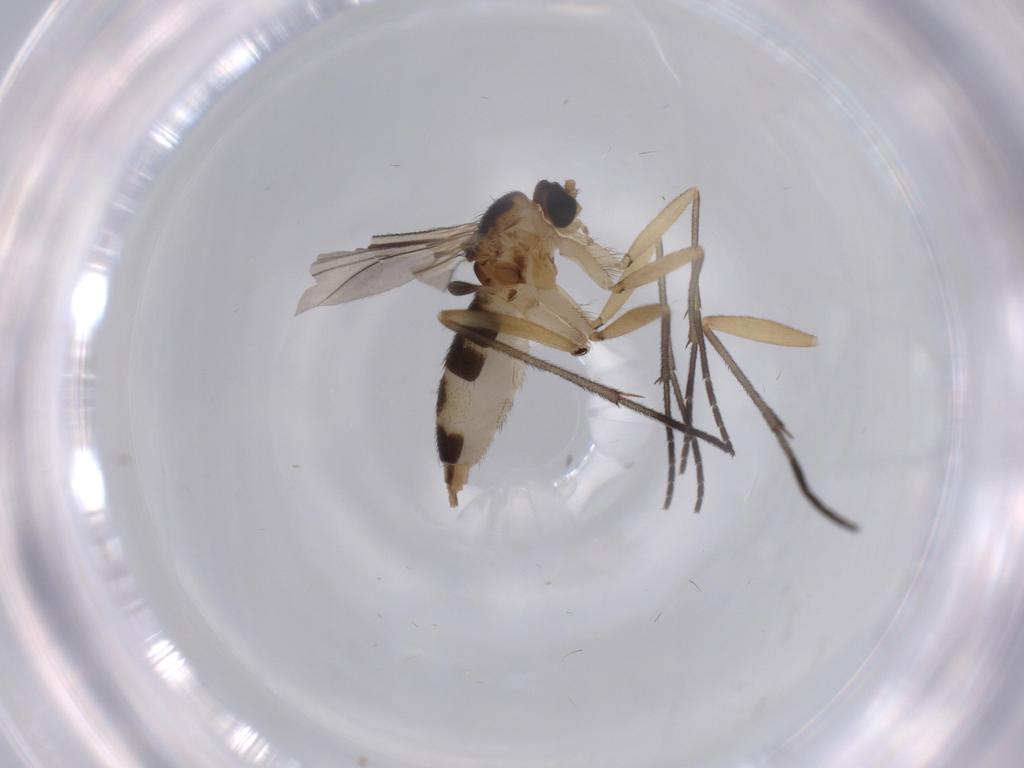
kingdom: Animalia
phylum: Arthropoda
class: Insecta
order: Diptera
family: Sciaridae
